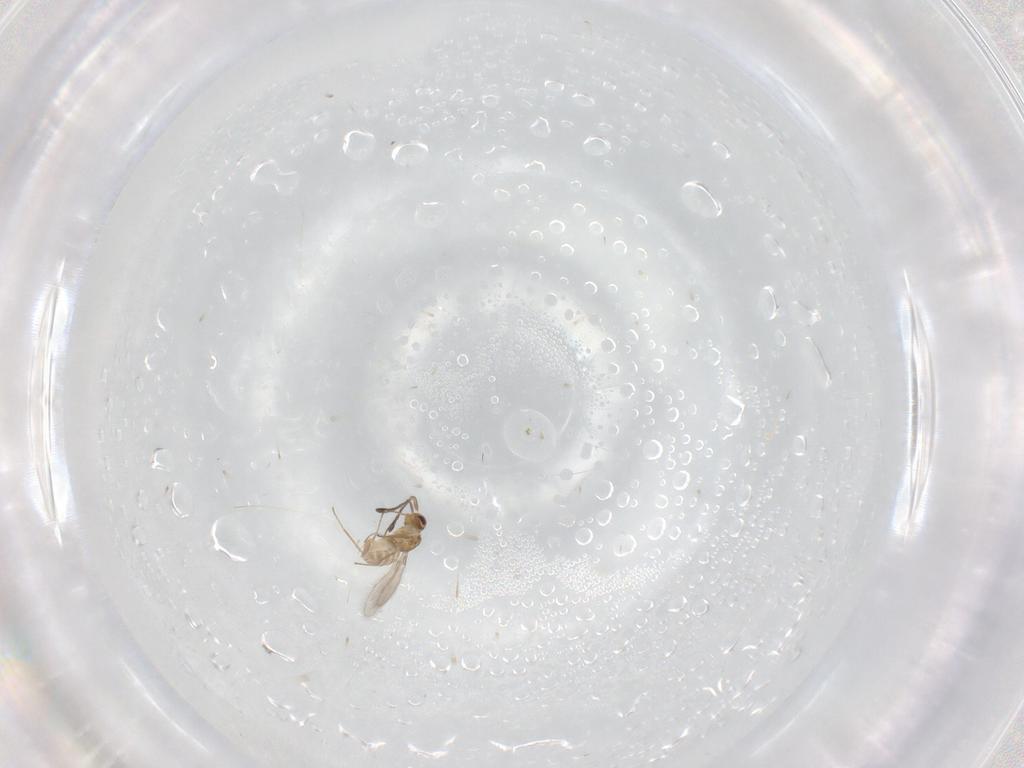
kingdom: Animalia
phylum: Arthropoda
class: Insecta
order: Hymenoptera
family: Mymaridae
